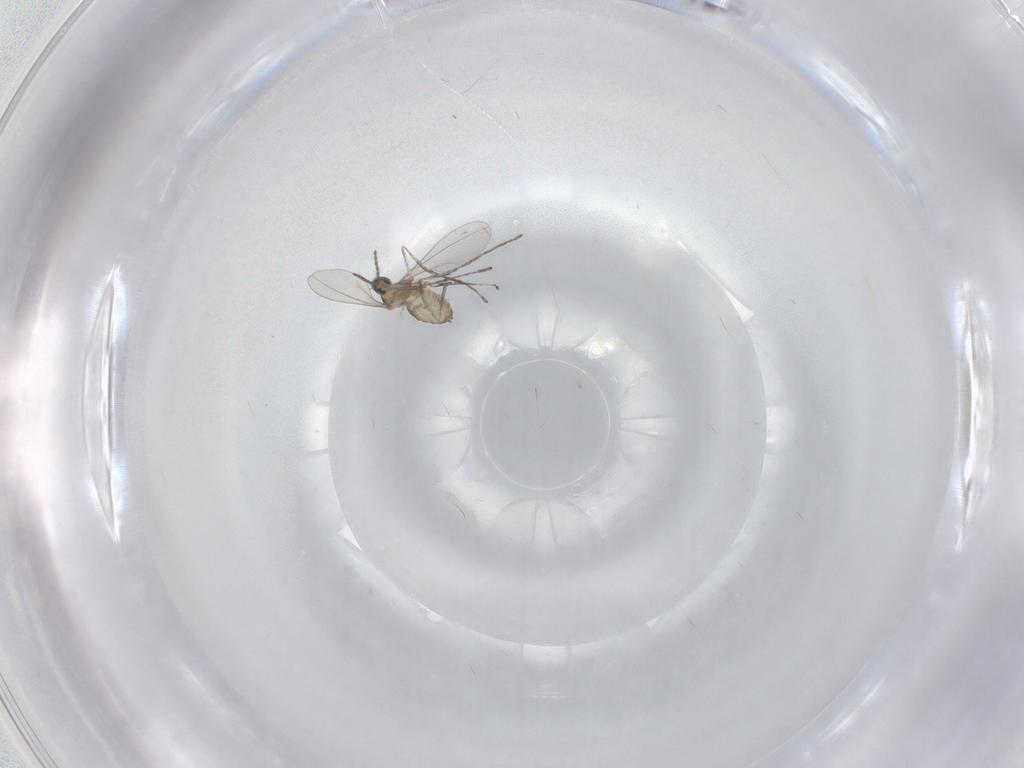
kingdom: Animalia
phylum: Arthropoda
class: Insecta
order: Diptera
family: Cecidomyiidae
